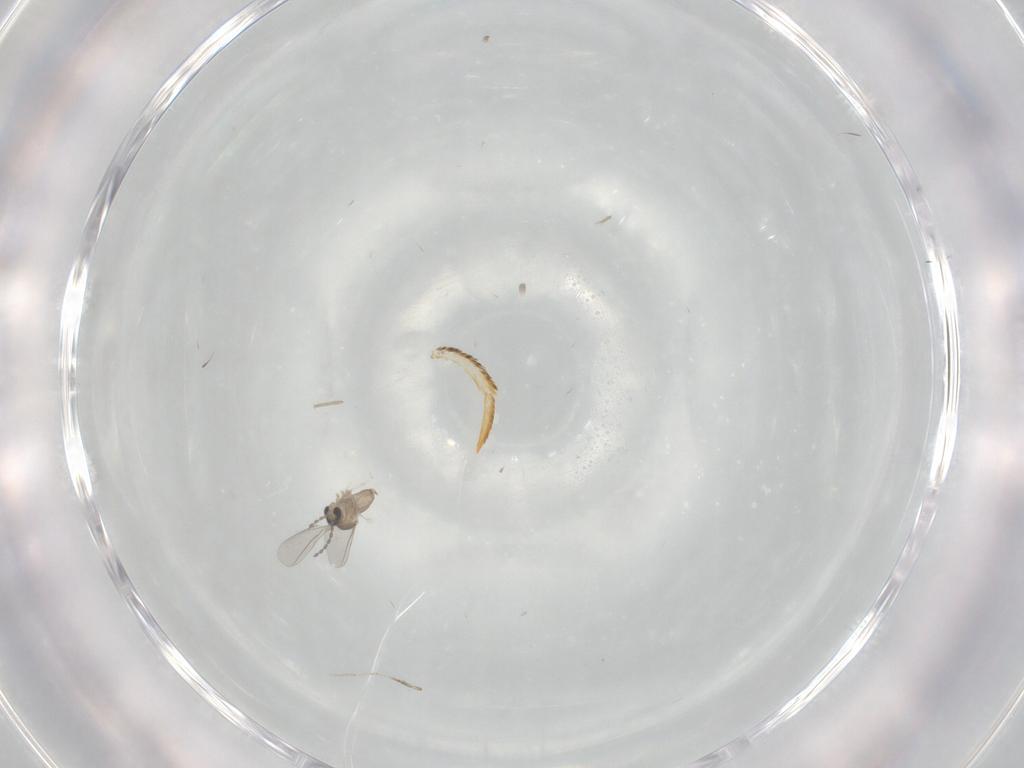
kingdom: Animalia
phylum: Arthropoda
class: Insecta
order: Diptera
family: Cecidomyiidae
